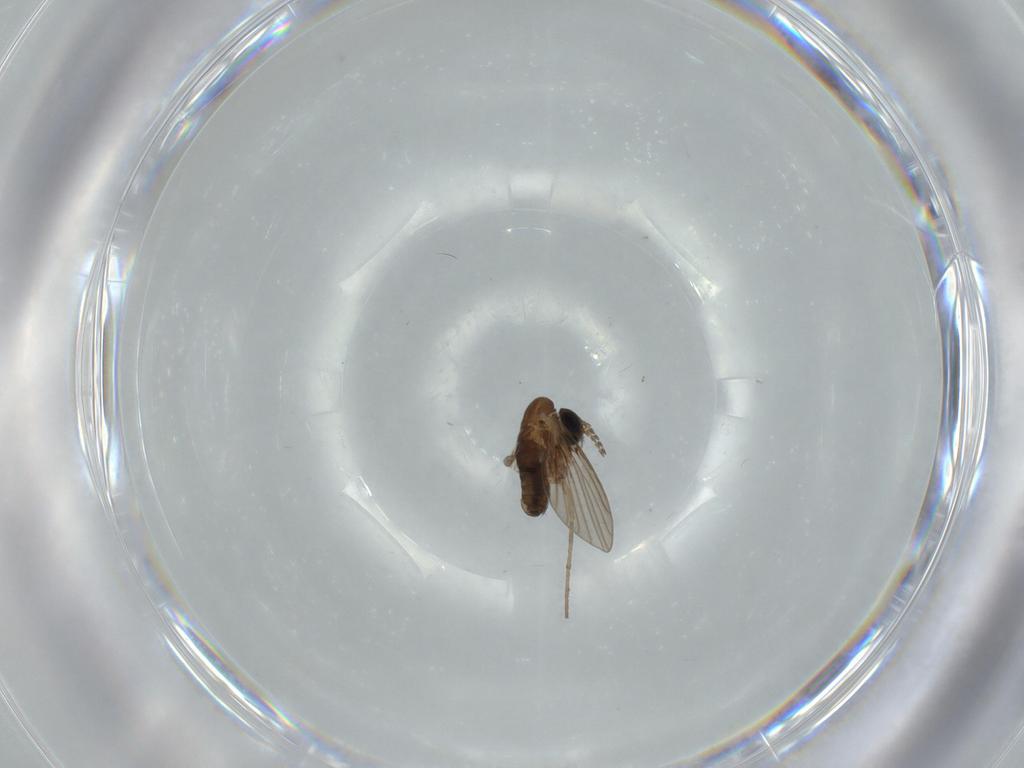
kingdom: Animalia
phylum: Arthropoda
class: Insecta
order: Diptera
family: Psychodidae
